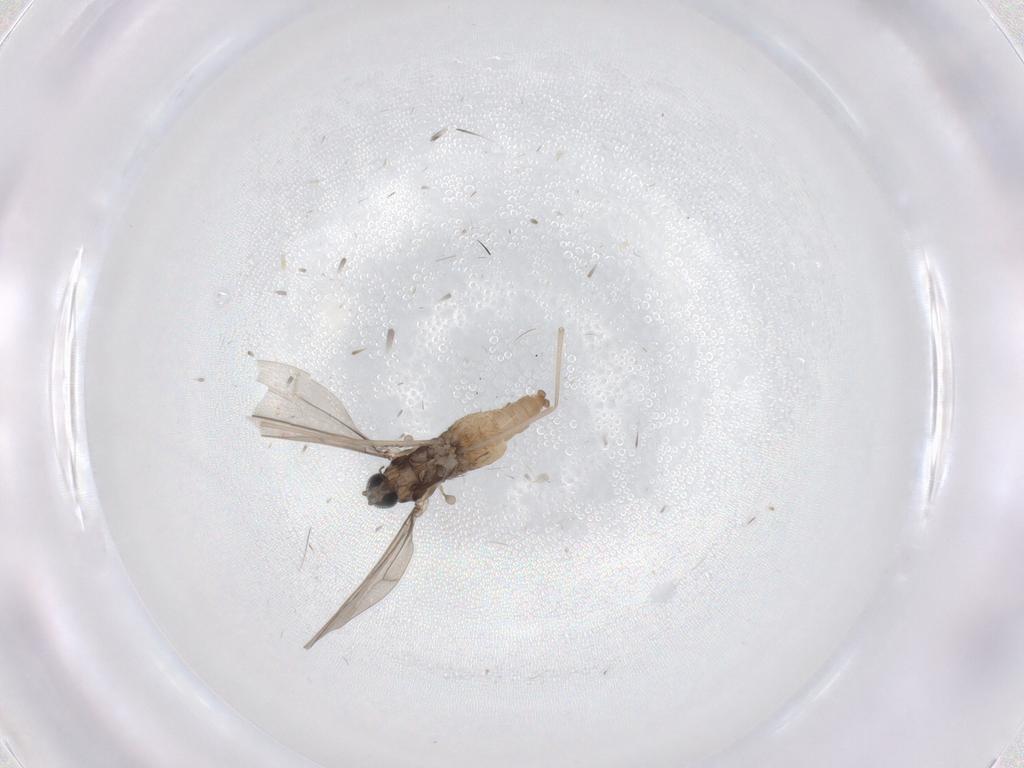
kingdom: Animalia
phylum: Arthropoda
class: Insecta
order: Diptera
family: Cecidomyiidae
